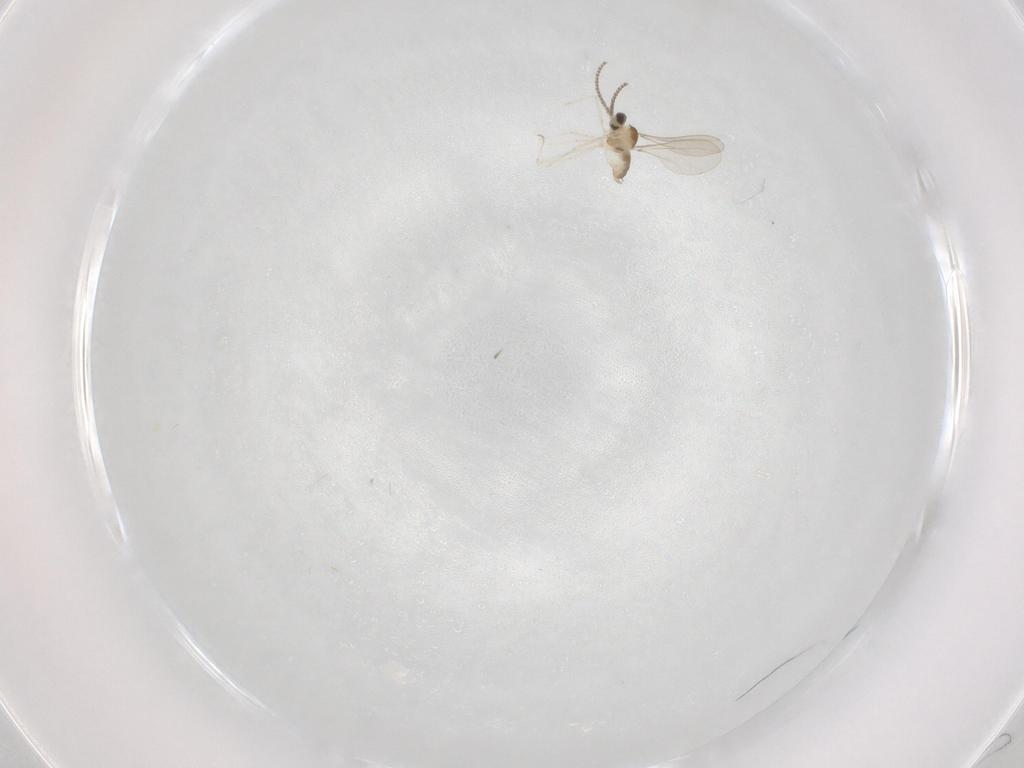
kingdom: Animalia
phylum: Arthropoda
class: Insecta
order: Diptera
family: Cecidomyiidae
